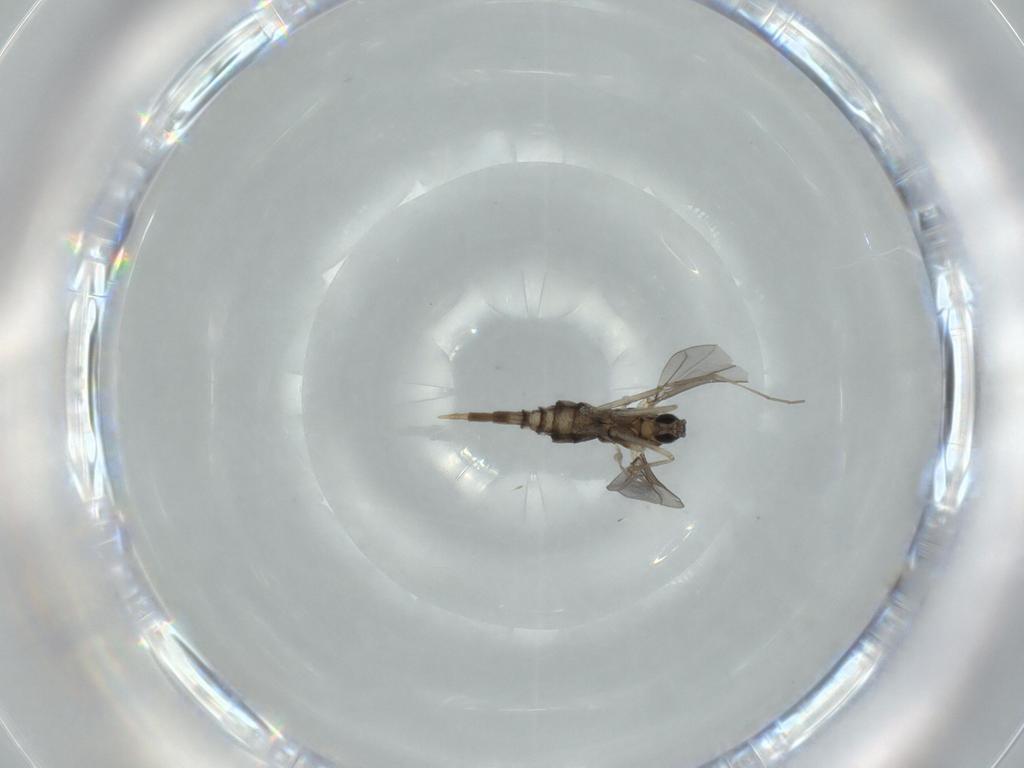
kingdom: Animalia
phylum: Arthropoda
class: Insecta
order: Diptera
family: Cecidomyiidae
